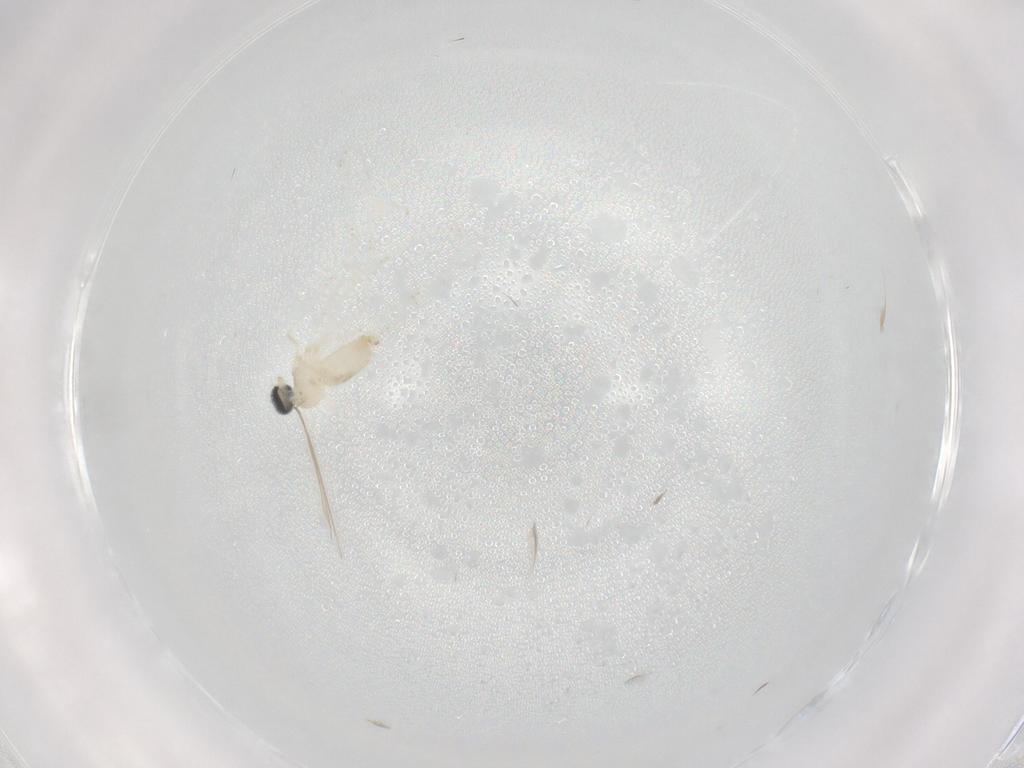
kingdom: Animalia
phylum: Arthropoda
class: Insecta
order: Diptera
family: Cecidomyiidae
